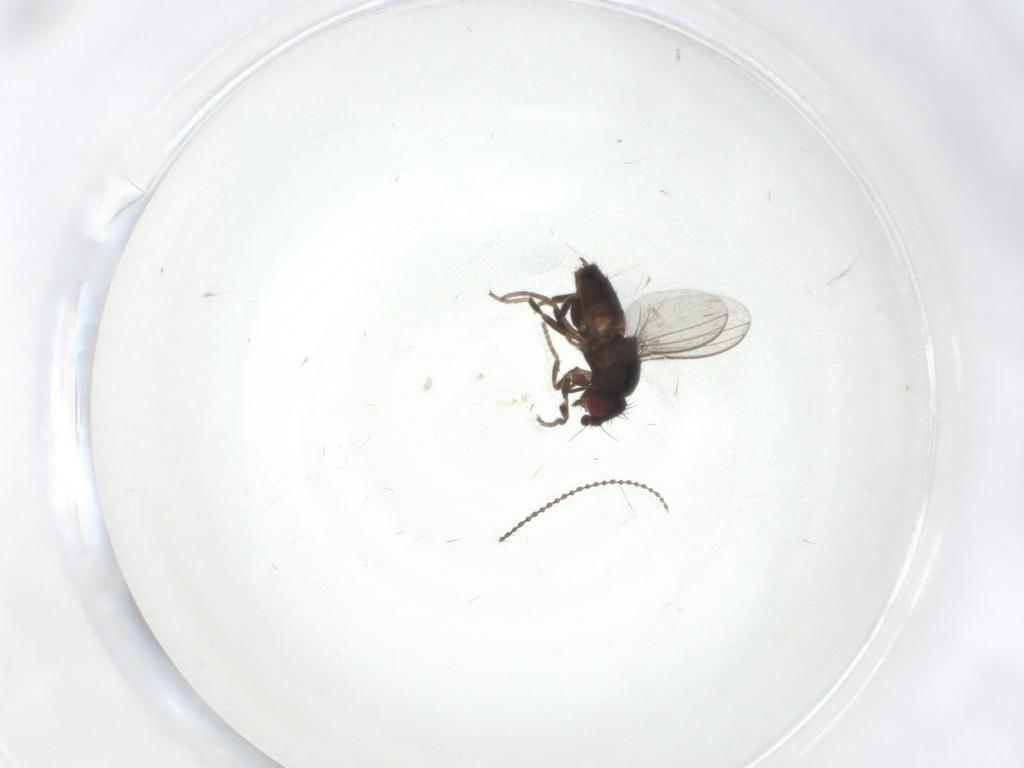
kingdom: Animalia
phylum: Arthropoda
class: Insecta
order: Diptera
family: Milichiidae
